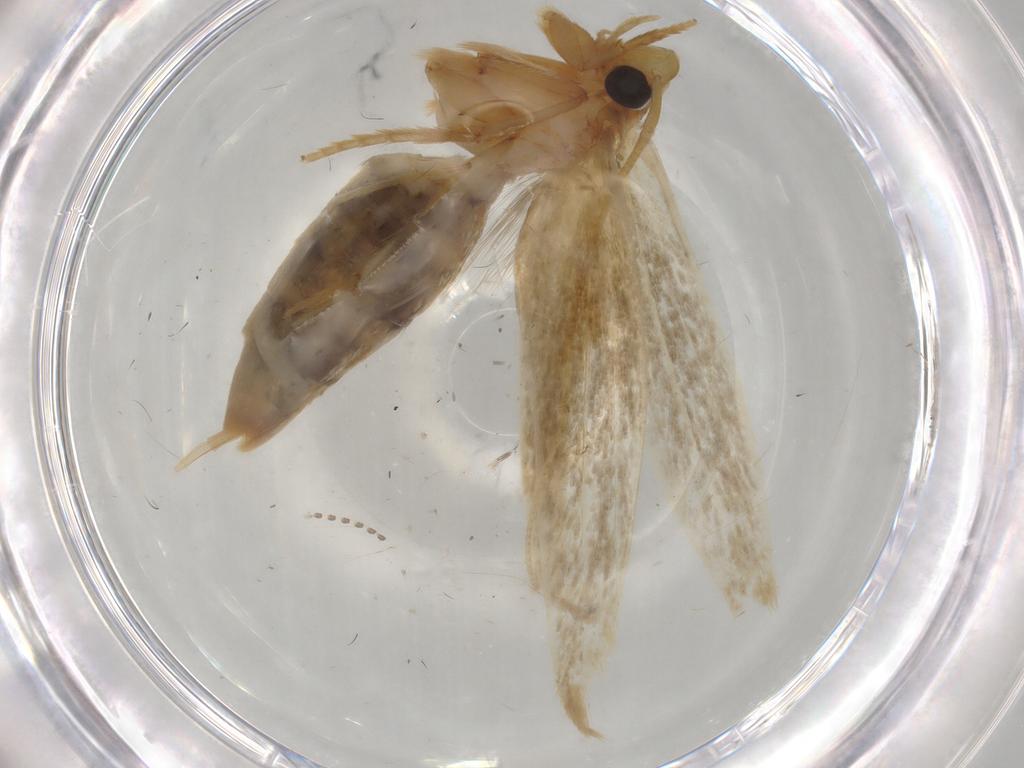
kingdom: Animalia
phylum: Arthropoda
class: Insecta
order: Lepidoptera
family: Tineidae
